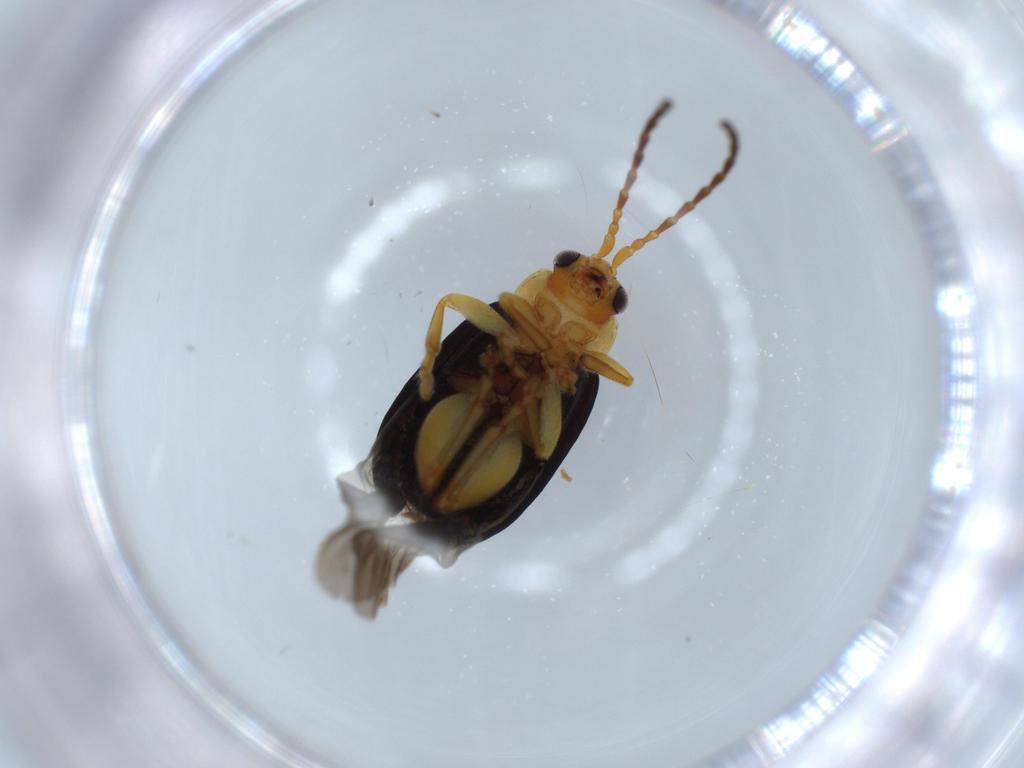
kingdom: Animalia
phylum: Arthropoda
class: Insecta
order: Coleoptera
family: Chrysomelidae
